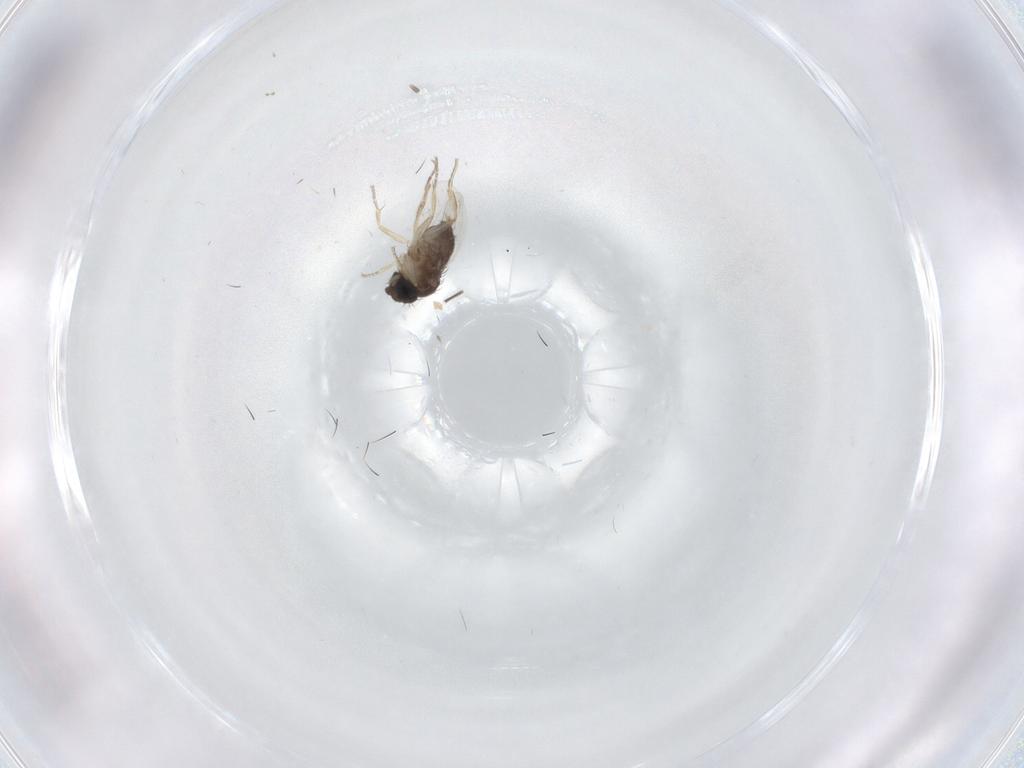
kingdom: Animalia
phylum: Arthropoda
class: Insecta
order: Diptera
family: Phoridae
